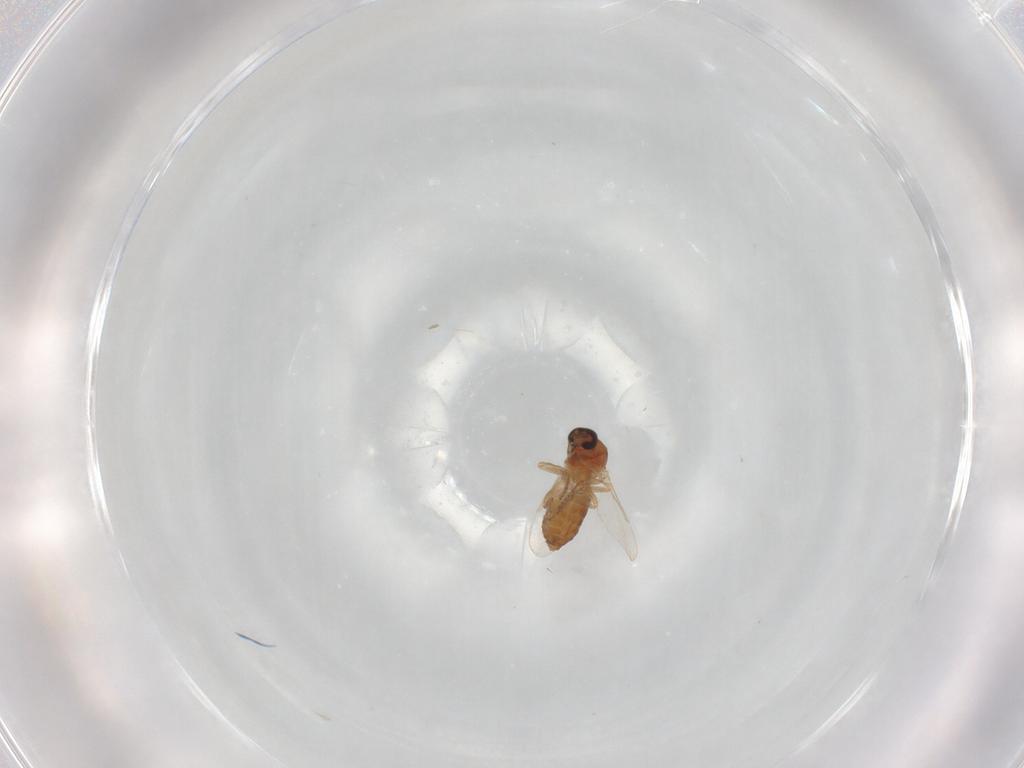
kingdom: Animalia
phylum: Arthropoda
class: Insecta
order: Diptera
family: Ceratopogonidae
